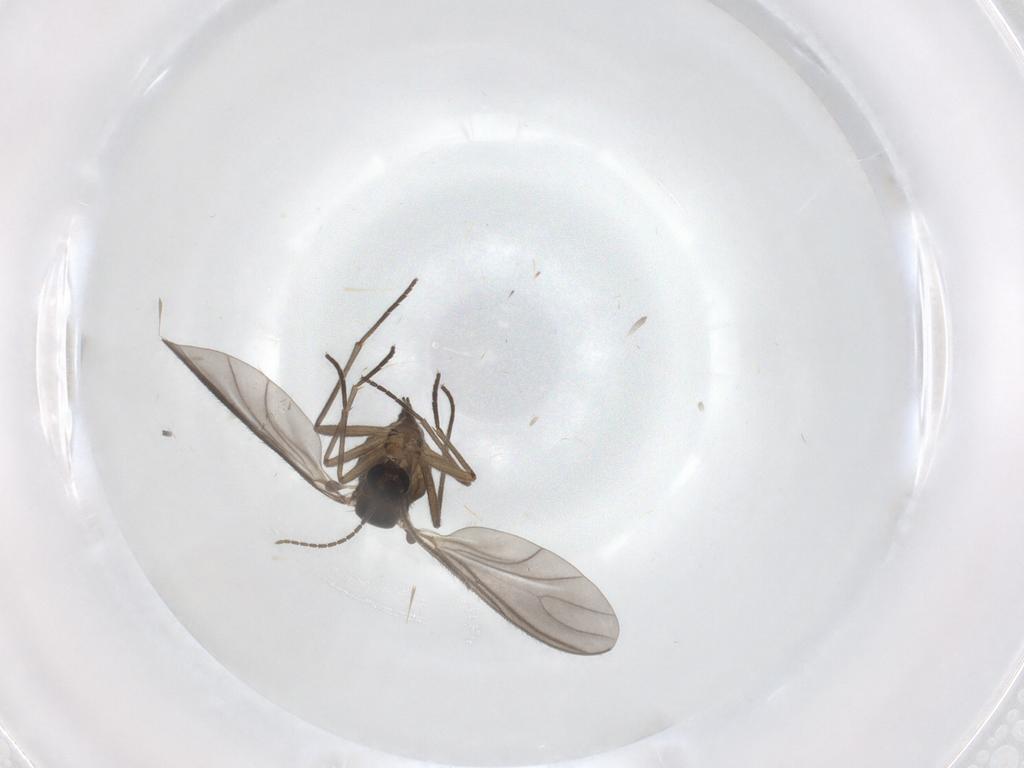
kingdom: Animalia
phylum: Arthropoda
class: Insecta
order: Diptera
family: Sciaridae
